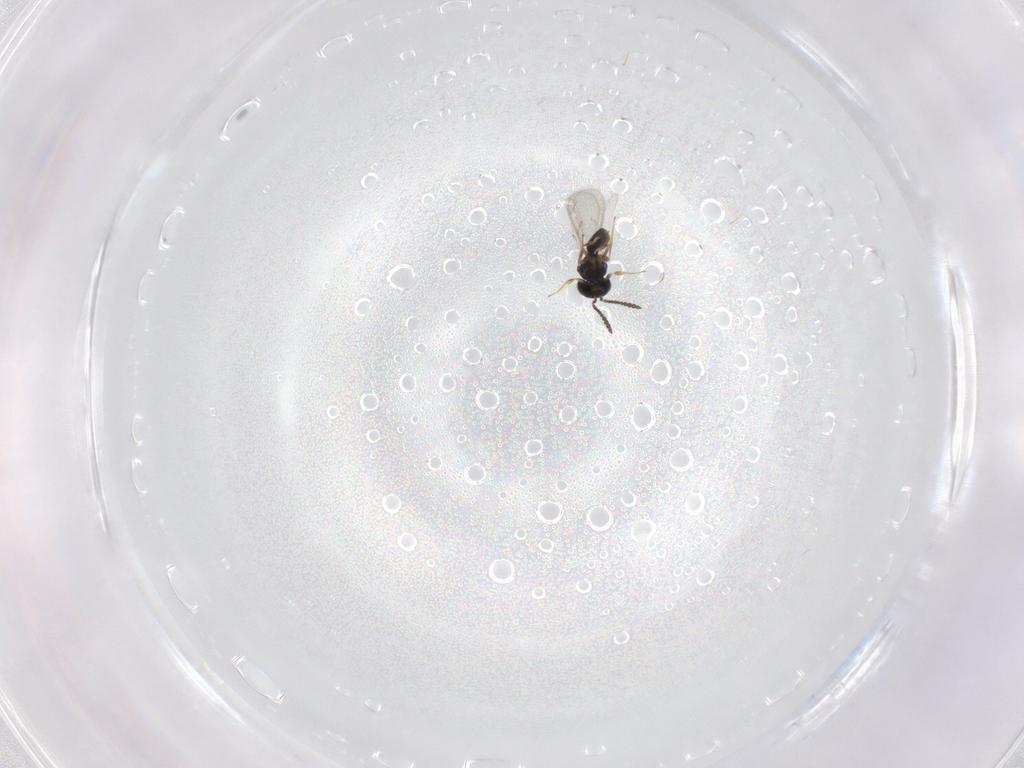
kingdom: Animalia
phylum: Arthropoda
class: Insecta
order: Hymenoptera
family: Scelionidae
